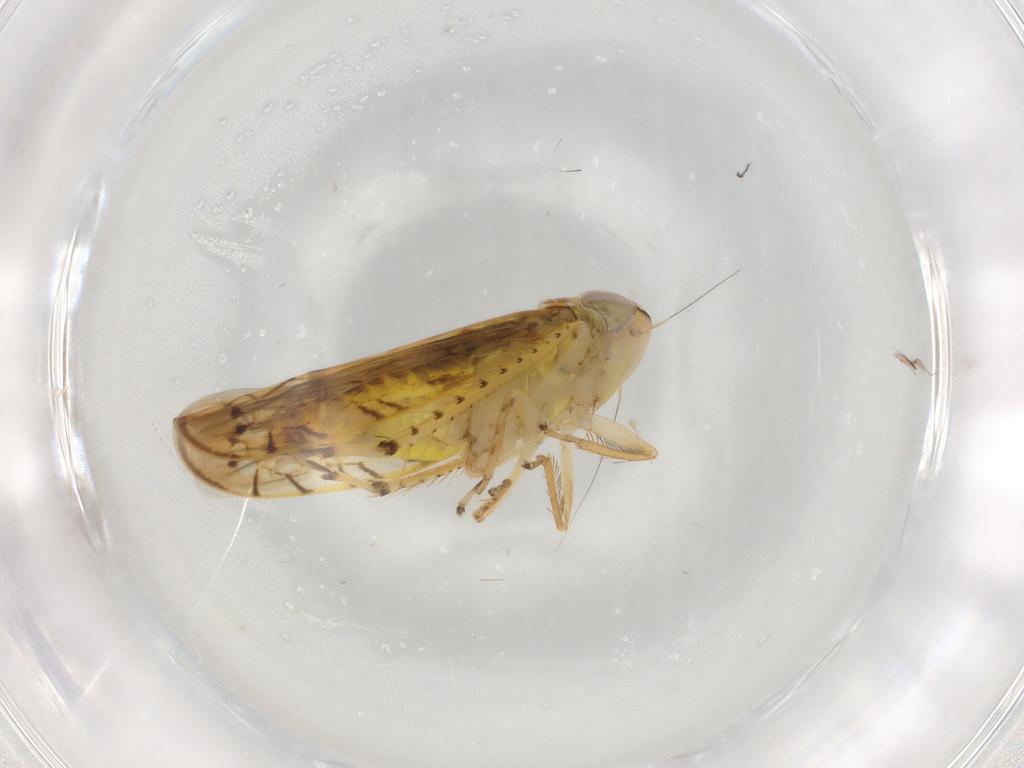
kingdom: Animalia
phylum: Arthropoda
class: Insecta
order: Hemiptera
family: Cicadellidae
